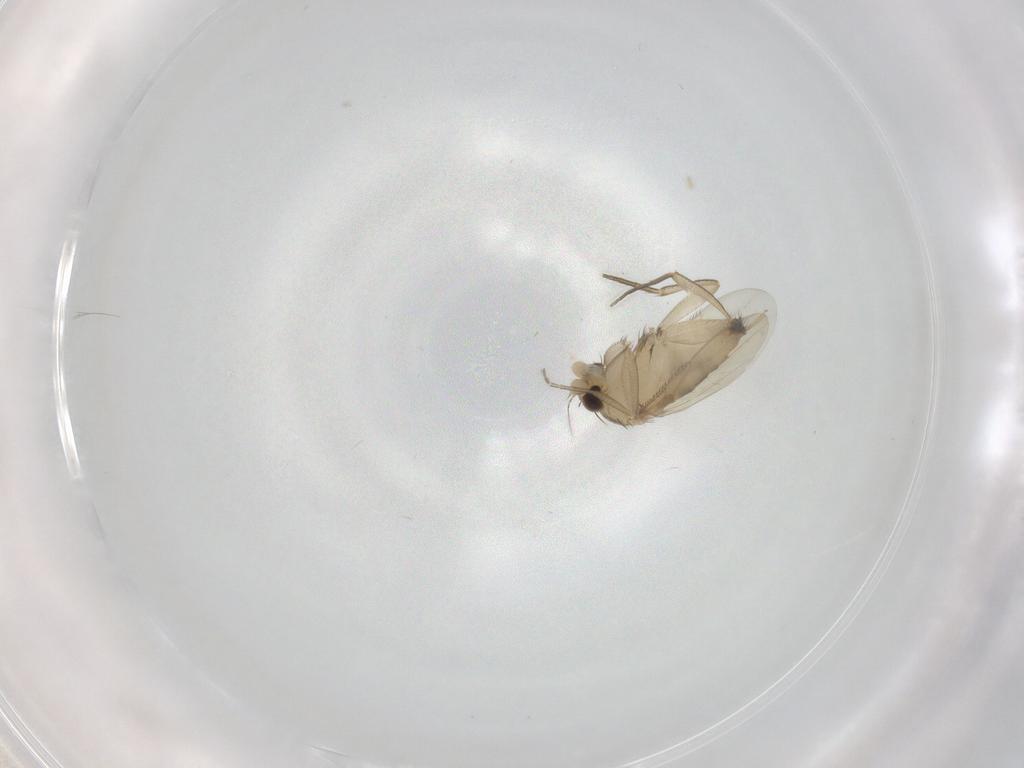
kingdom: Animalia
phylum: Arthropoda
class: Insecta
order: Diptera
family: Phoridae
